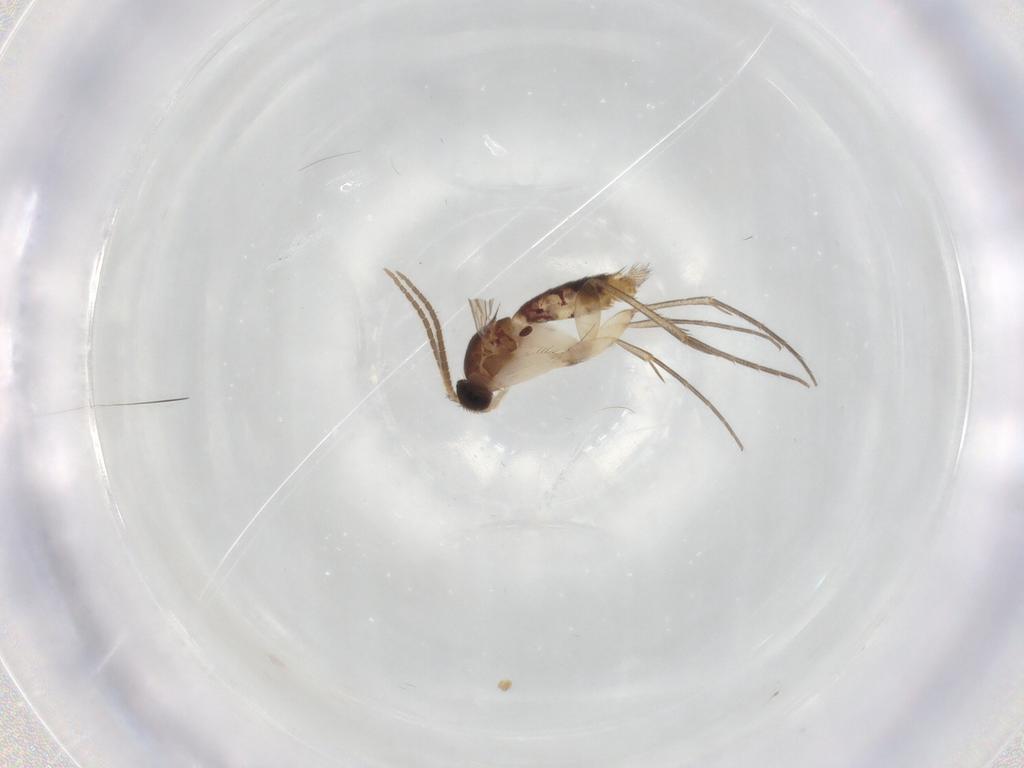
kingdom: Animalia
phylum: Arthropoda
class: Insecta
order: Diptera
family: Mycetophilidae
